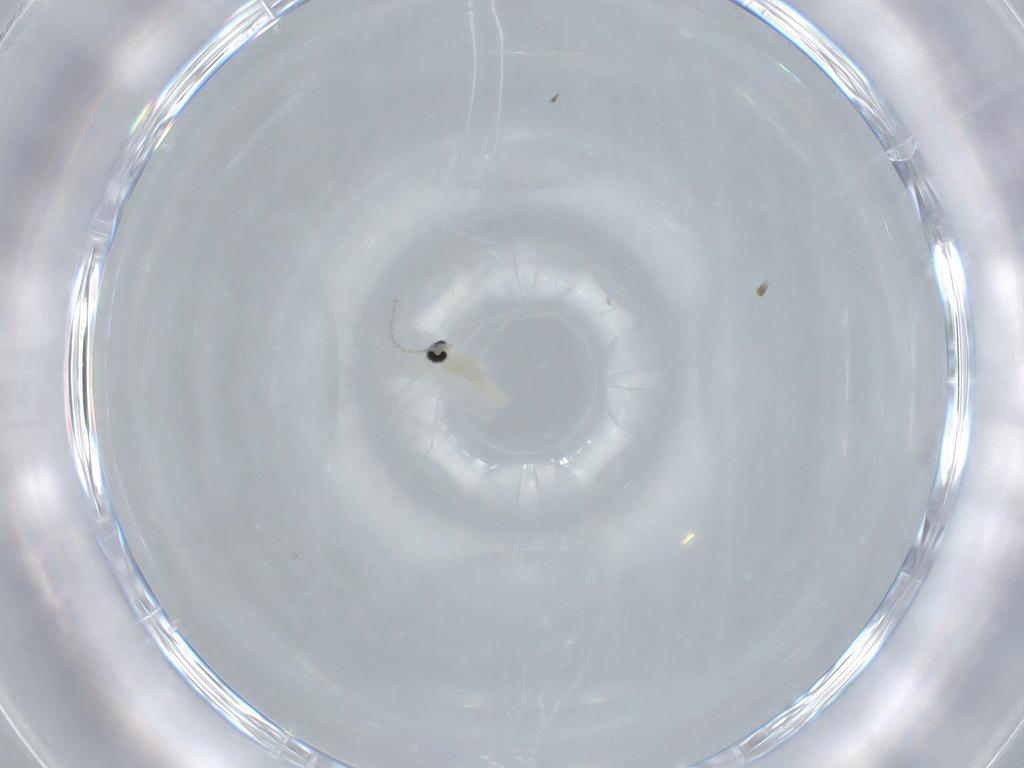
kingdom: Animalia
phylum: Arthropoda
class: Insecta
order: Diptera
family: Cecidomyiidae
